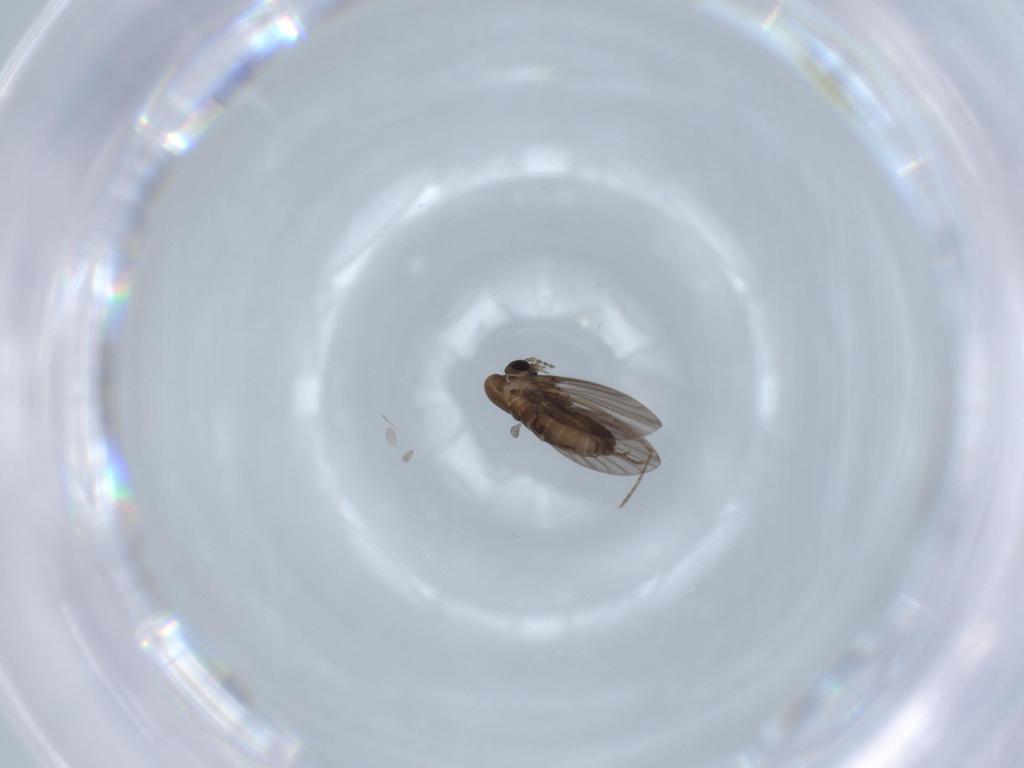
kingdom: Animalia
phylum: Arthropoda
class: Insecta
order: Diptera
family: Psychodidae
